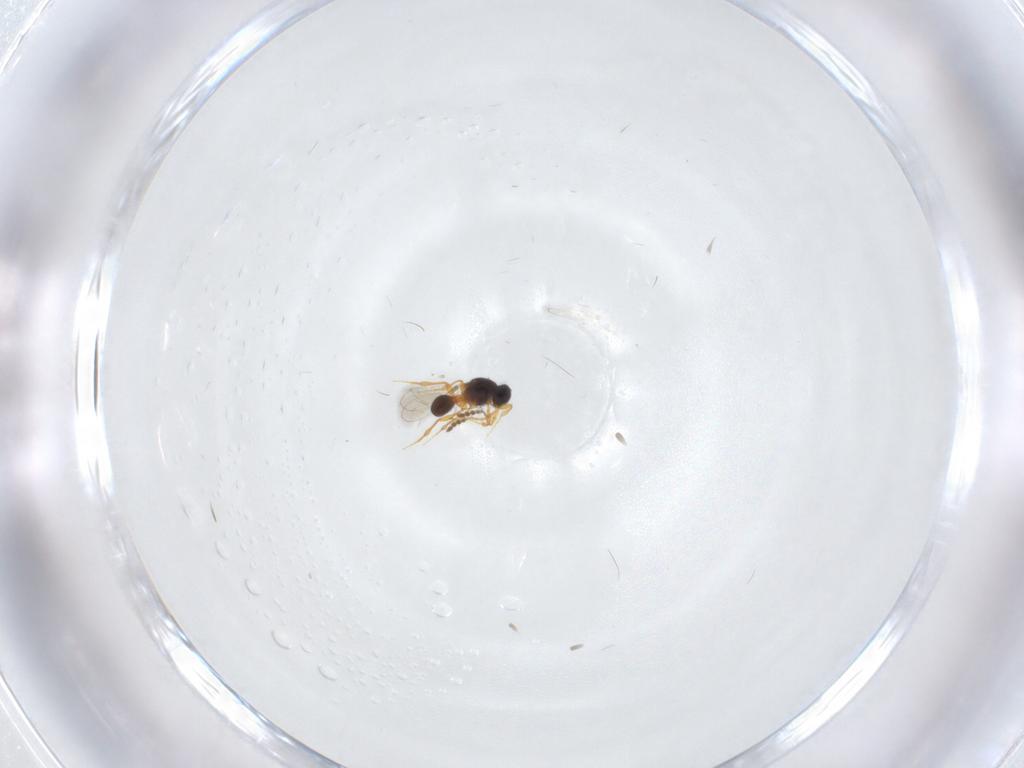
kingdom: Animalia
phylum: Arthropoda
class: Insecta
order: Hymenoptera
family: Platygastridae
